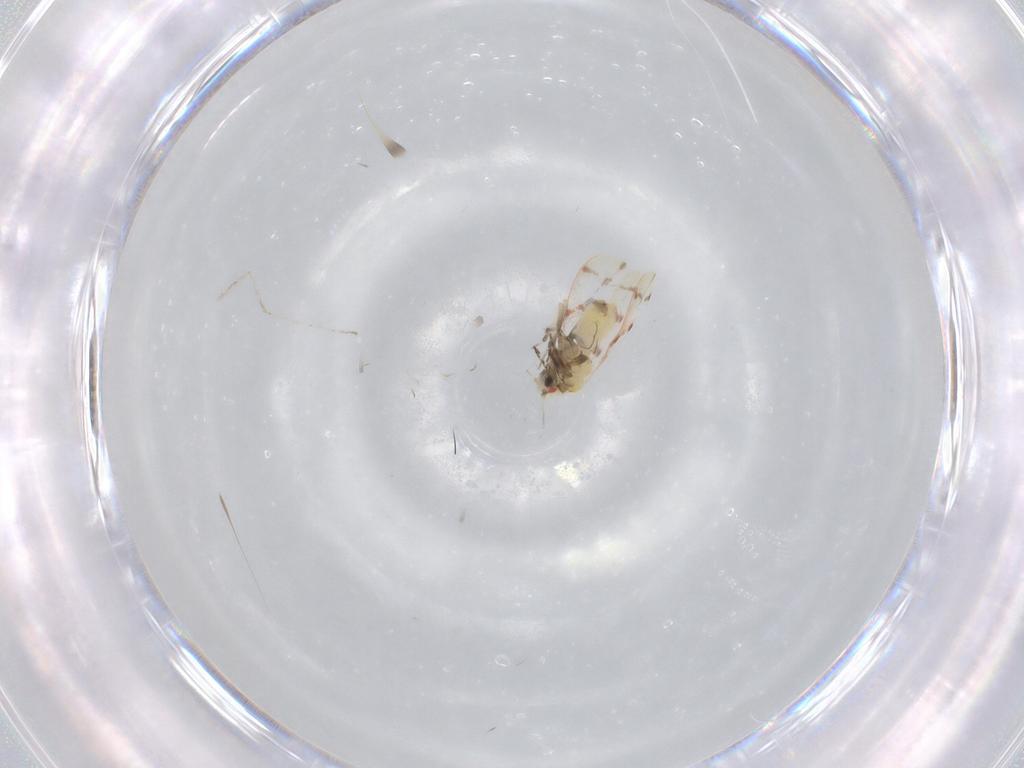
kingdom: Animalia
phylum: Arthropoda
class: Insecta
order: Hemiptera
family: Aleyrodidae
